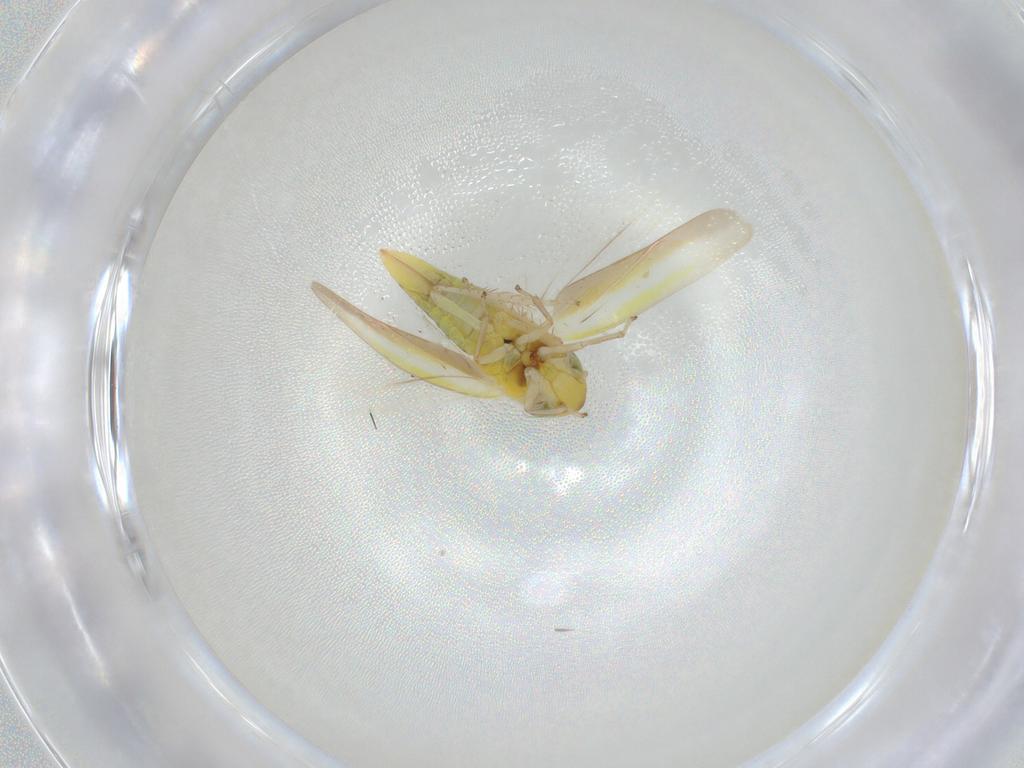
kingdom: Animalia
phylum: Arthropoda
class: Insecta
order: Hemiptera
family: Cicadellidae
